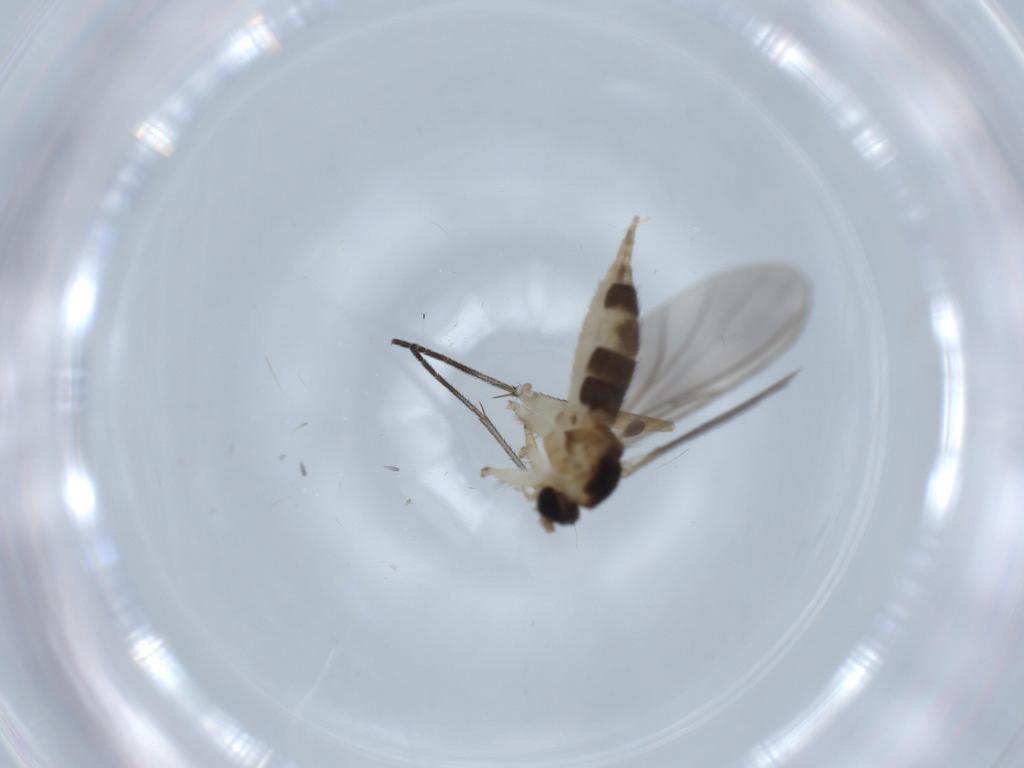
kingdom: Animalia
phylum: Arthropoda
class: Insecta
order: Diptera
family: Sciaridae
